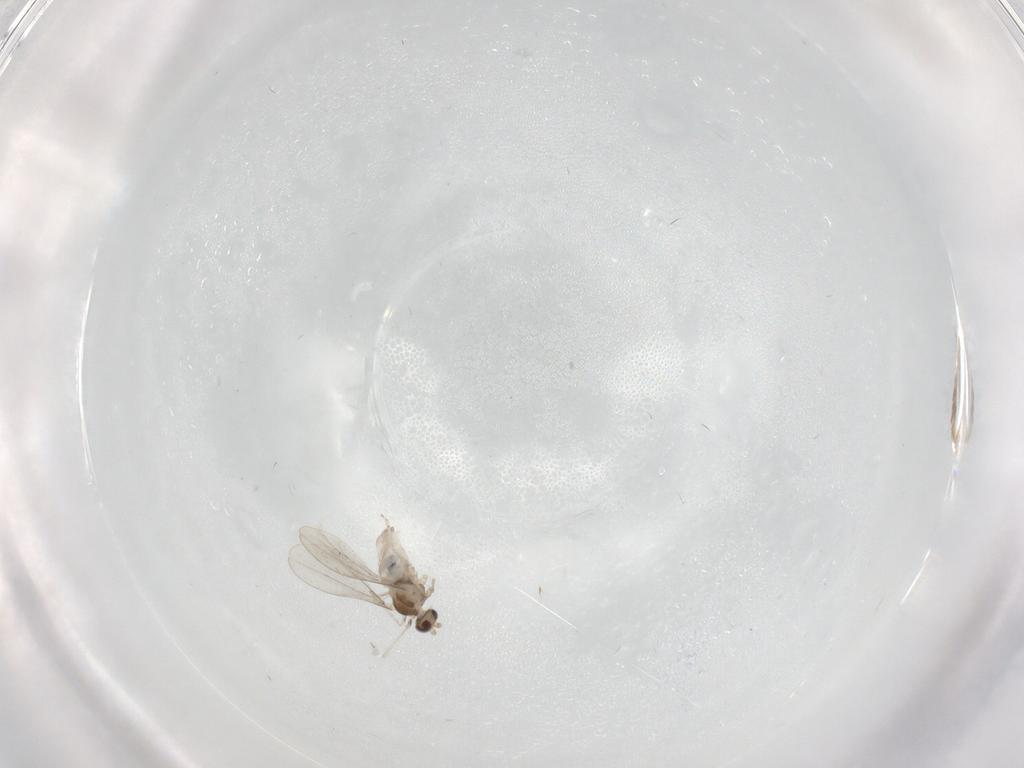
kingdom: Animalia
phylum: Arthropoda
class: Insecta
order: Diptera
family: Cecidomyiidae
